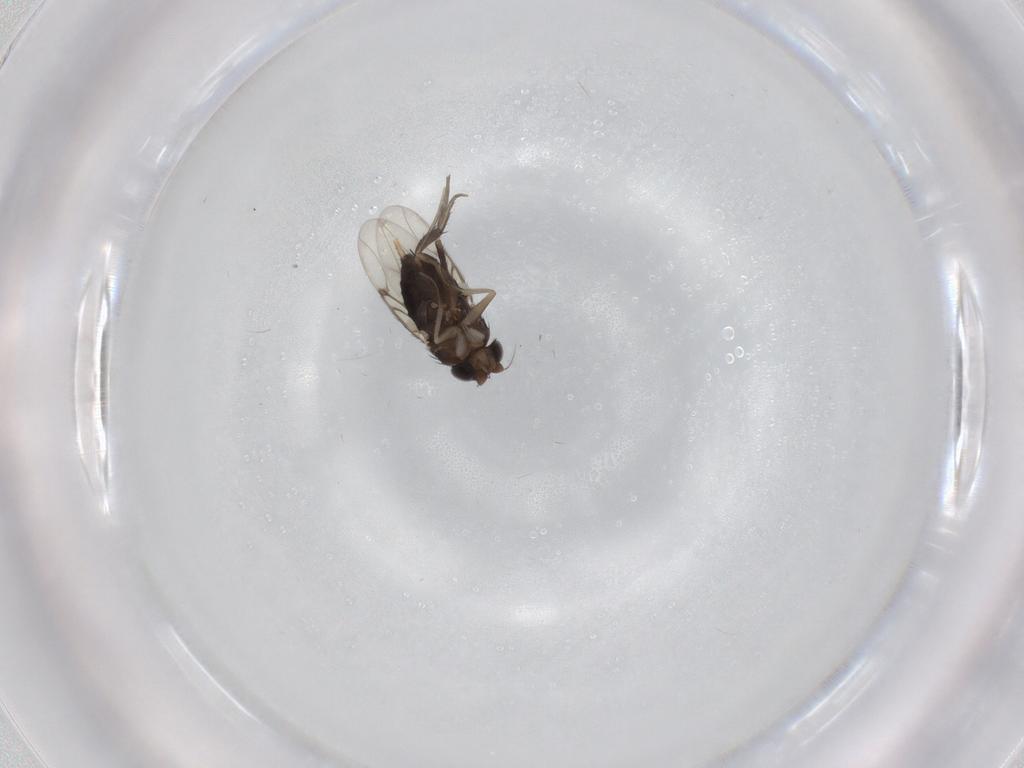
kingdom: Animalia
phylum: Arthropoda
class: Insecta
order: Diptera
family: Phoridae
